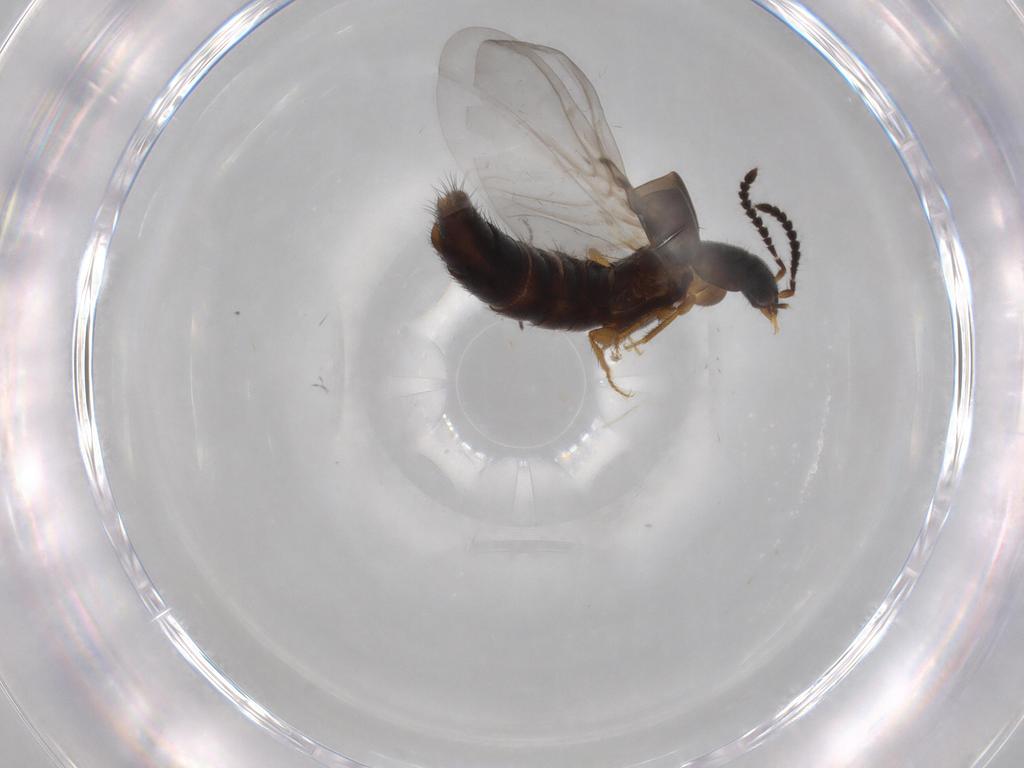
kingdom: Animalia
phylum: Arthropoda
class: Insecta
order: Coleoptera
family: Staphylinidae
